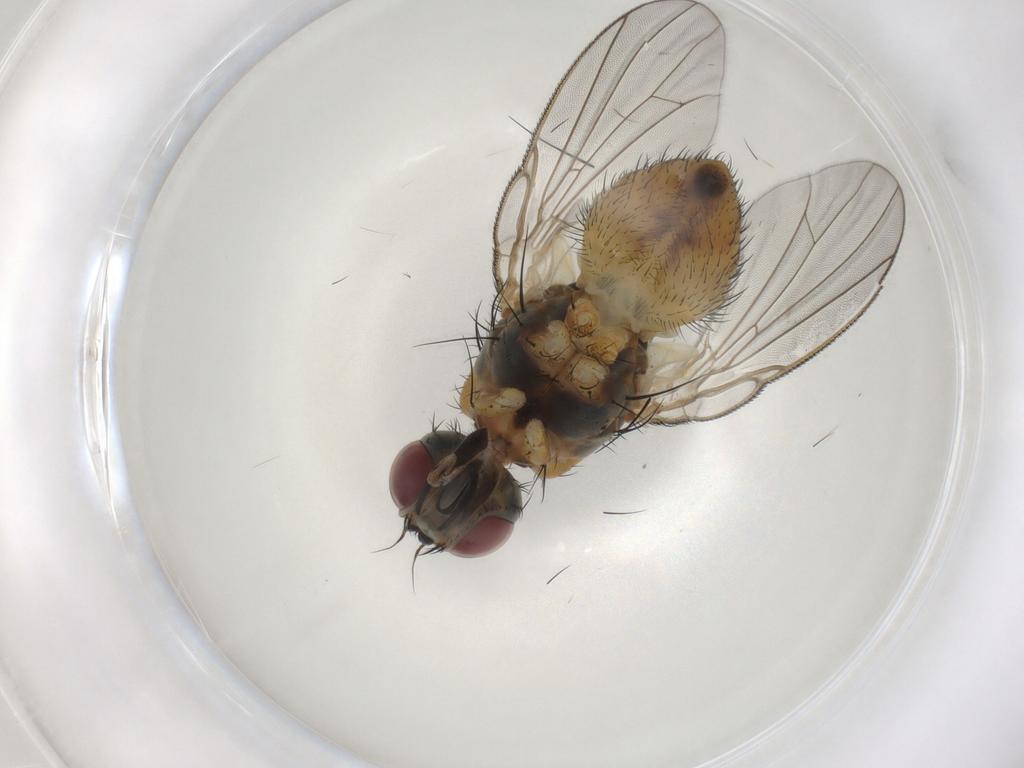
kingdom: Animalia
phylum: Arthropoda
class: Insecta
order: Diptera
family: Muscidae
